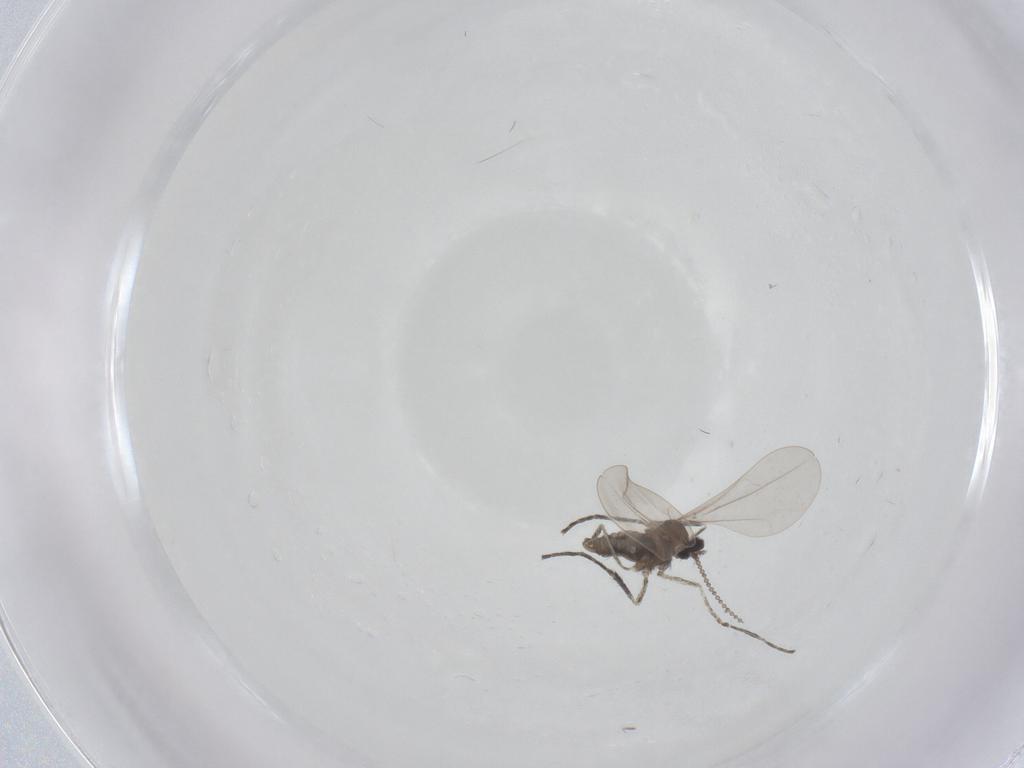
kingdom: Animalia
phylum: Arthropoda
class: Insecta
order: Diptera
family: Cecidomyiidae
